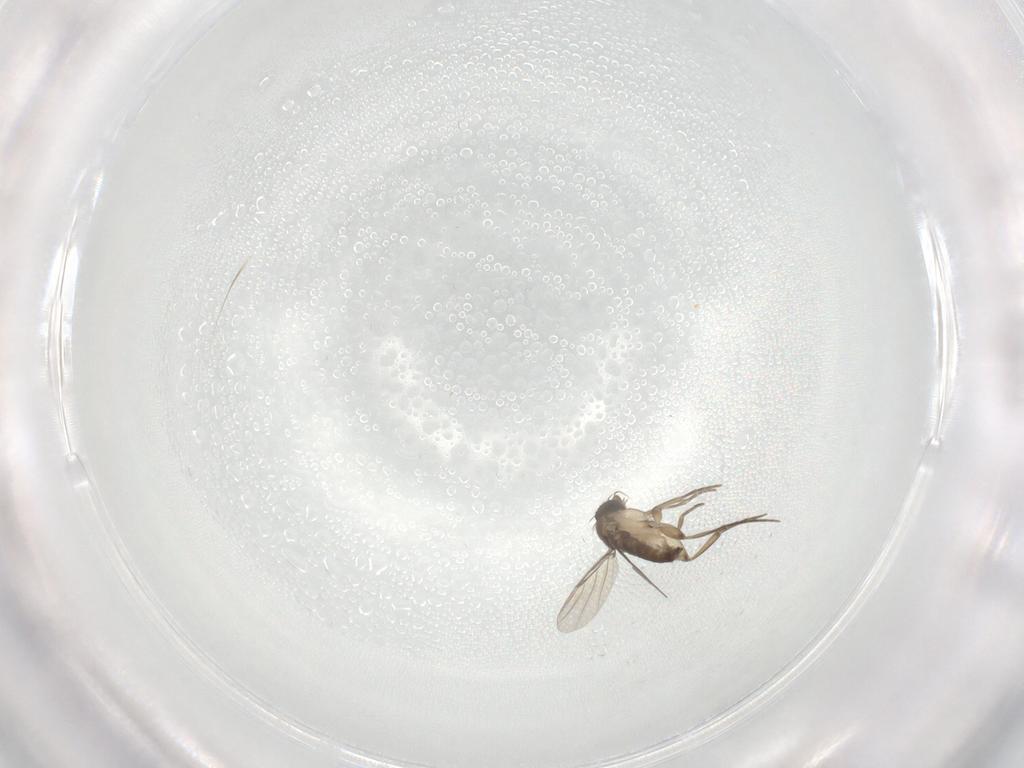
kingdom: Animalia
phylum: Arthropoda
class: Insecta
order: Diptera
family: Phoridae
